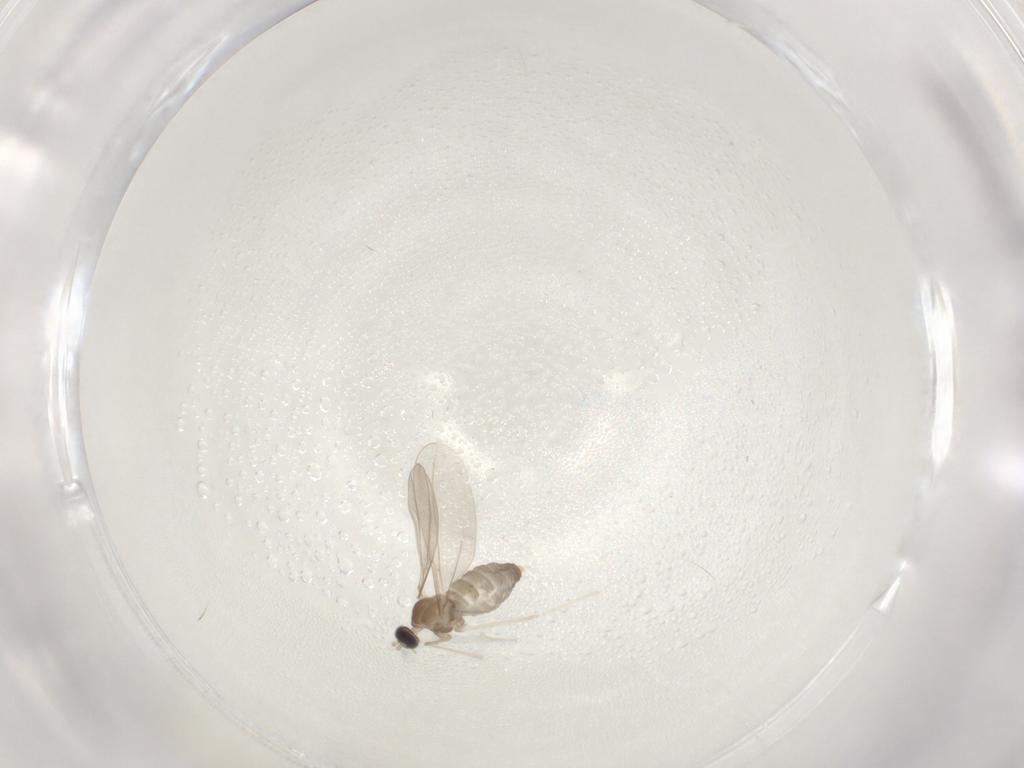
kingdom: Animalia
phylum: Arthropoda
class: Insecta
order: Diptera
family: Cecidomyiidae
